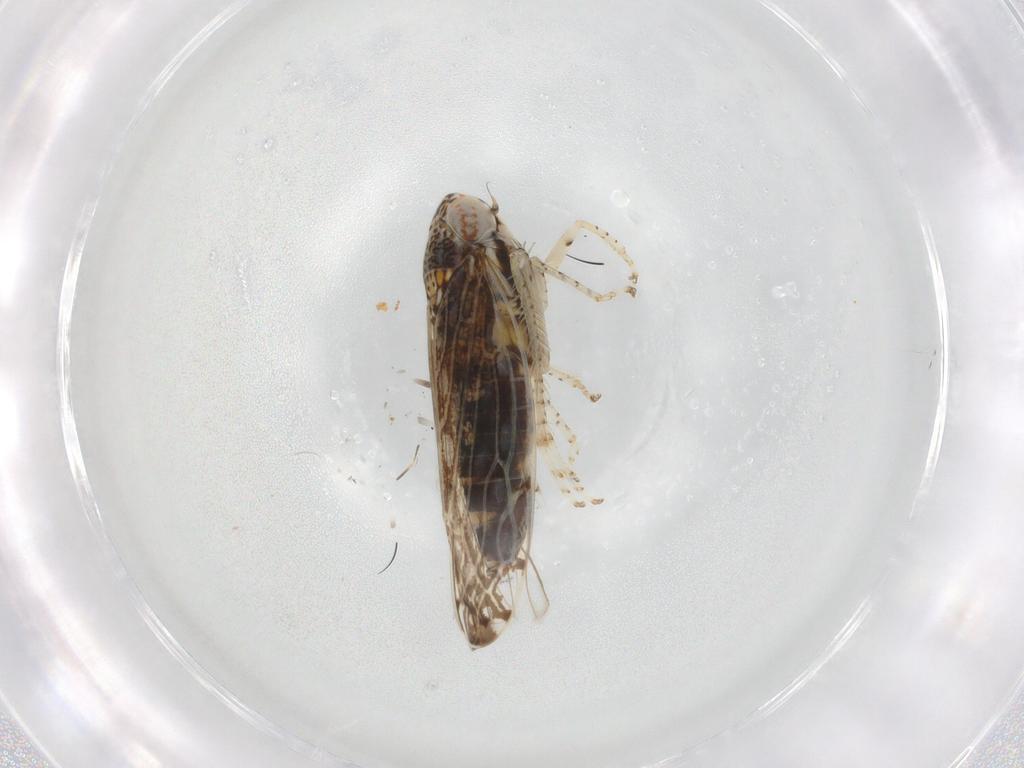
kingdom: Animalia
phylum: Arthropoda
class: Insecta
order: Hemiptera
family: Cicadellidae
